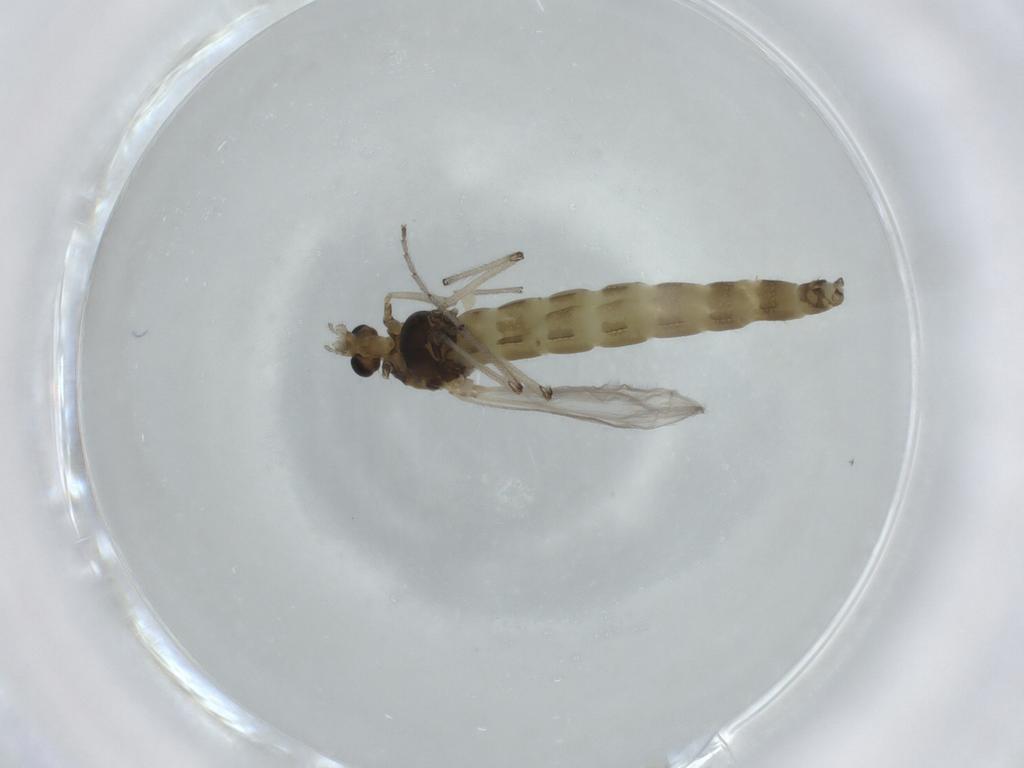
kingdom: Animalia
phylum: Arthropoda
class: Insecta
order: Diptera
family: Chironomidae
